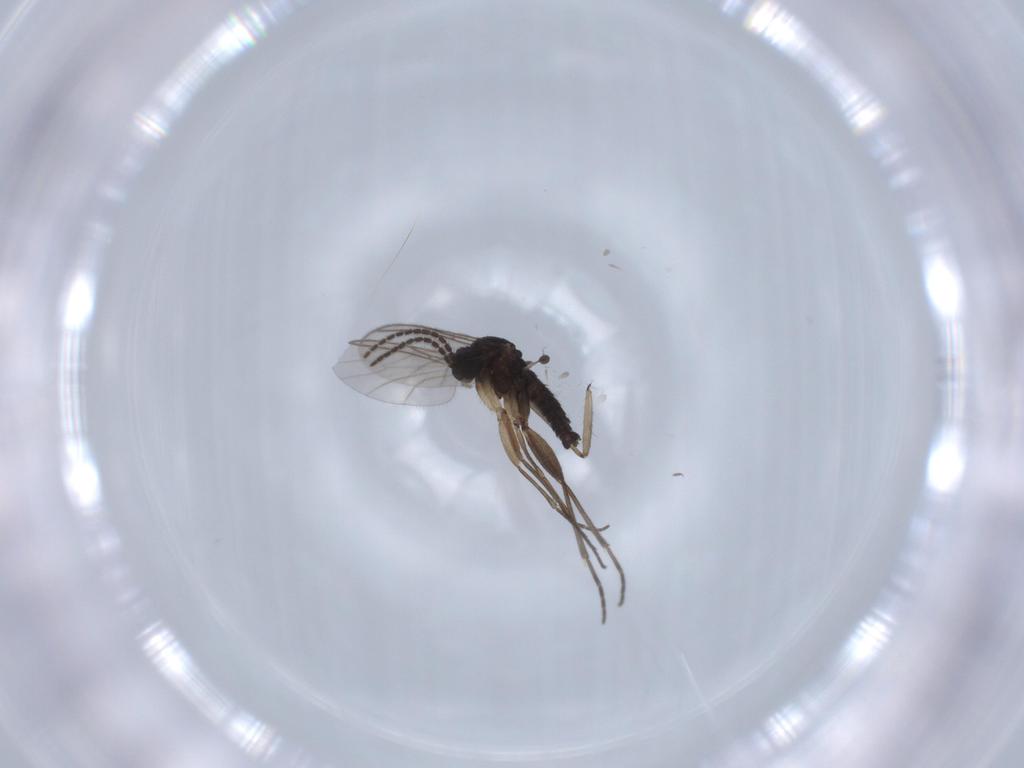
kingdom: Animalia
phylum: Arthropoda
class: Insecta
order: Diptera
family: Sciaridae
